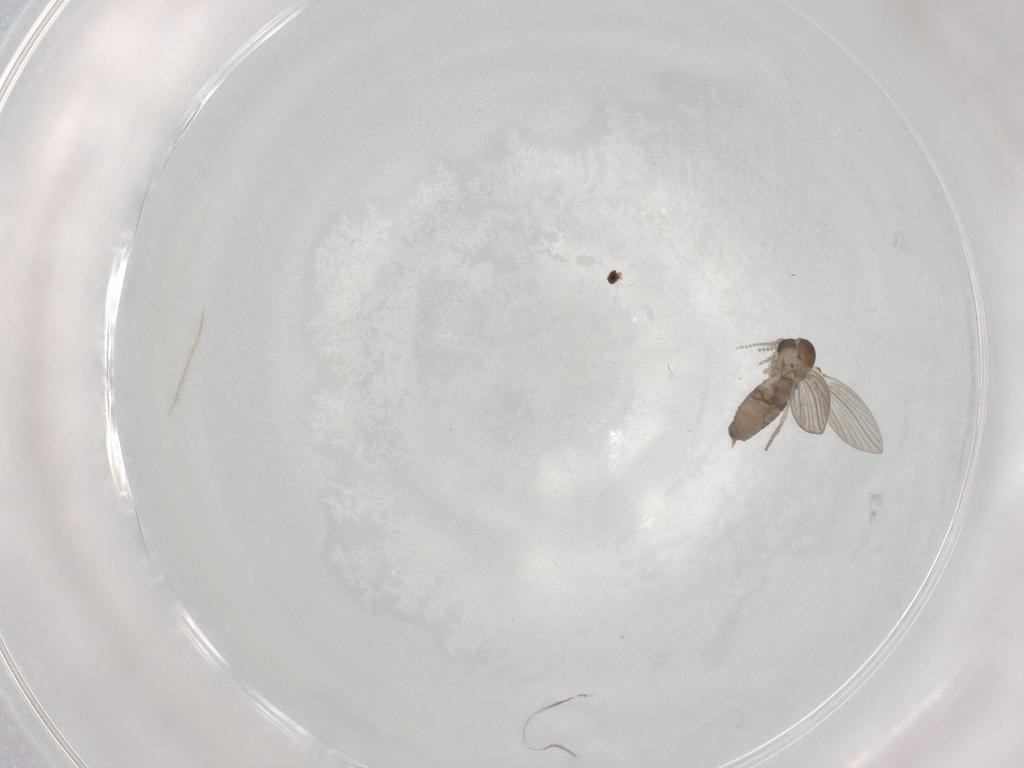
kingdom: Animalia
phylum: Arthropoda
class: Insecta
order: Diptera
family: Psychodidae
